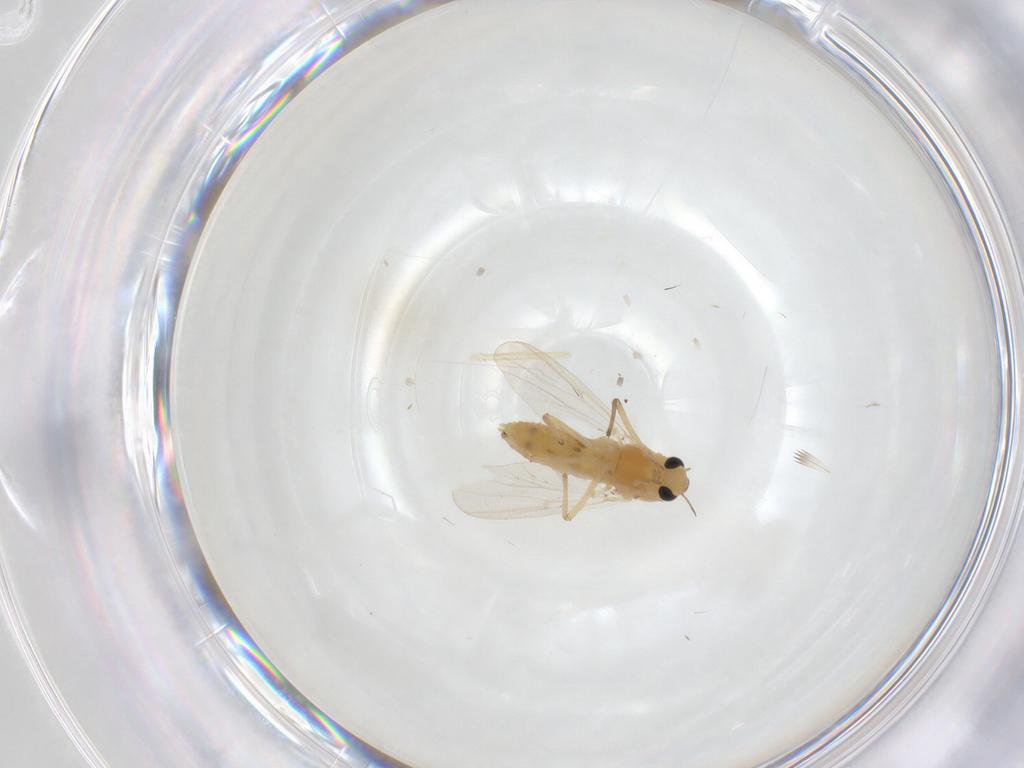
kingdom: Animalia
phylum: Arthropoda
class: Insecta
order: Diptera
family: Chironomidae
